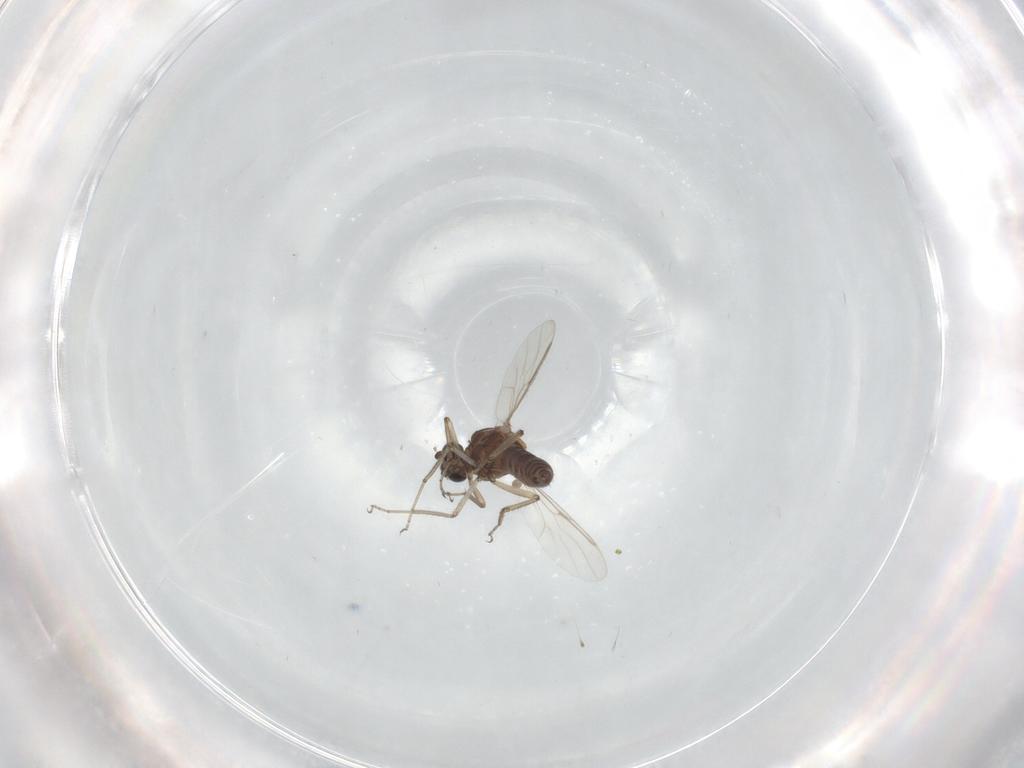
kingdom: Animalia
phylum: Arthropoda
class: Insecta
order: Diptera
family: Ceratopogonidae
